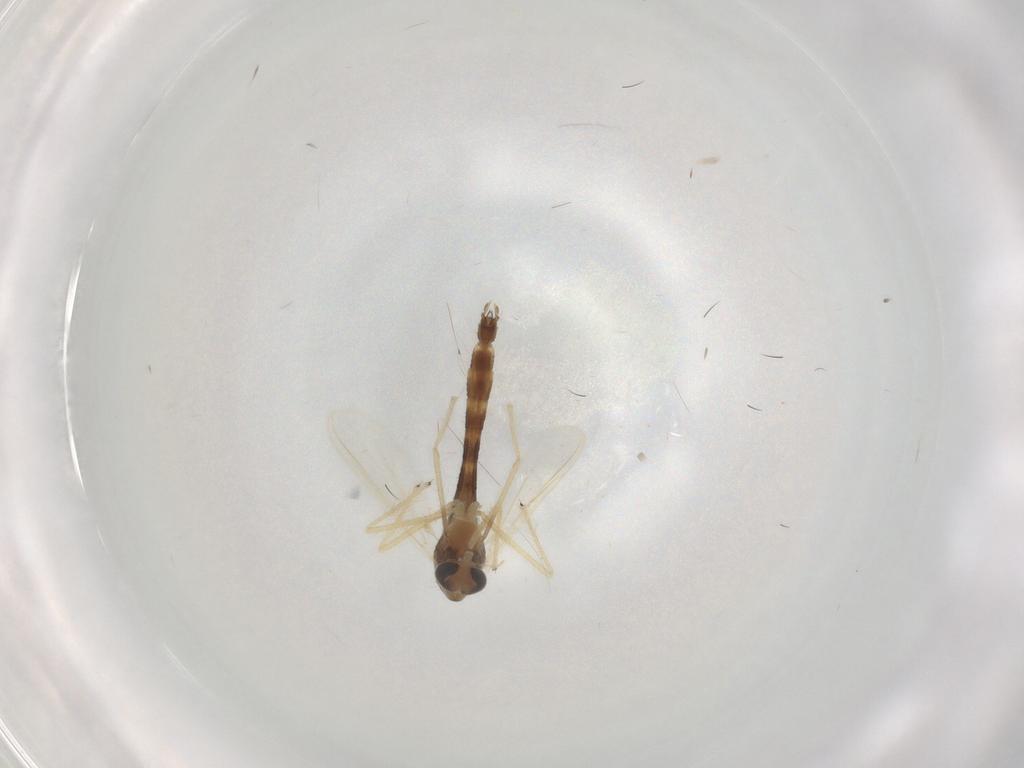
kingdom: Animalia
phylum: Arthropoda
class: Insecta
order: Diptera
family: Chironomidae
